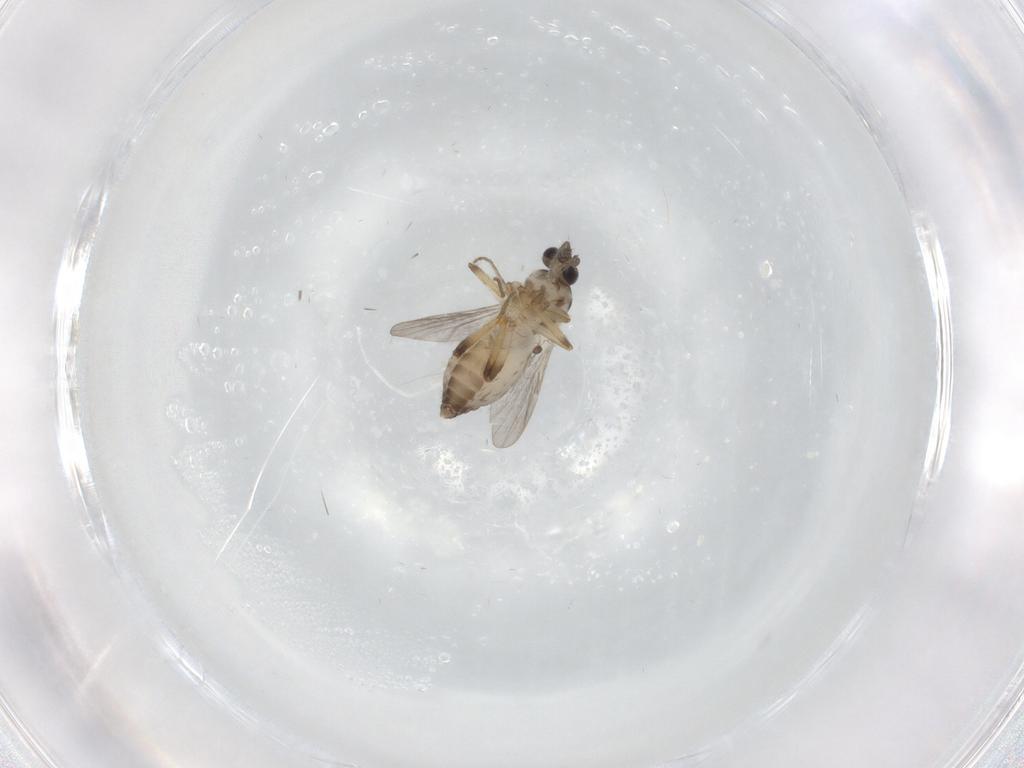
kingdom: Animalia
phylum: Arthropoda
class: Insecta
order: Diptera
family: Ceratopogonidae
